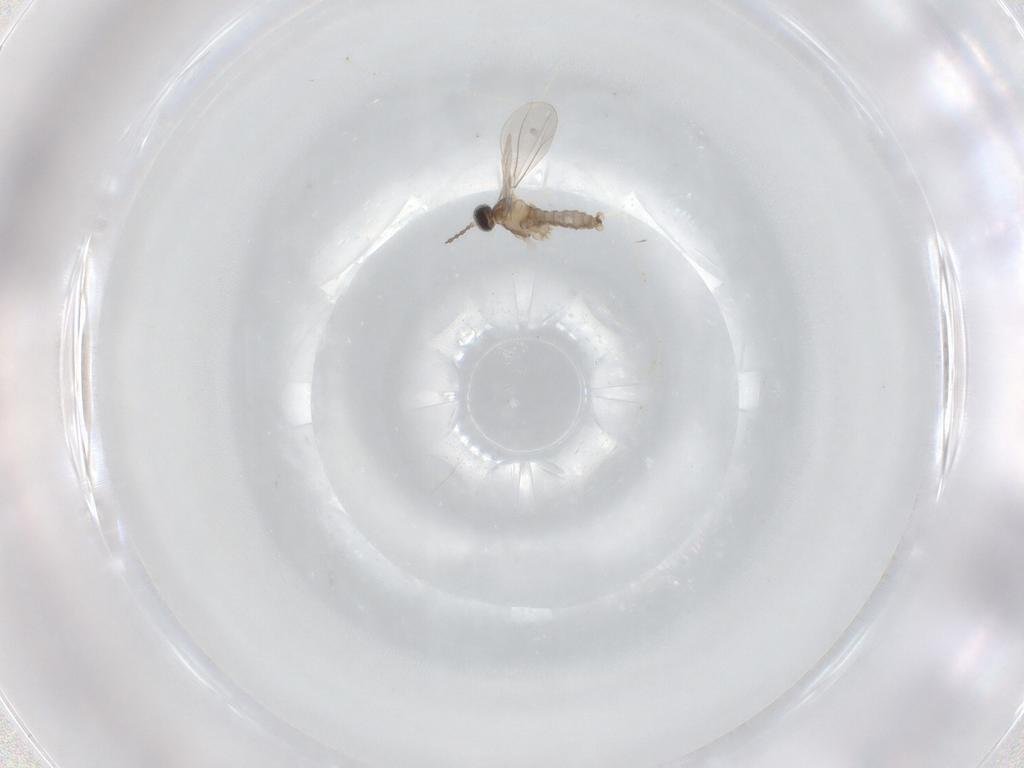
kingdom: Animalia
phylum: Arthropoda
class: Insecta
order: Diptera
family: Cecidomyiidae
